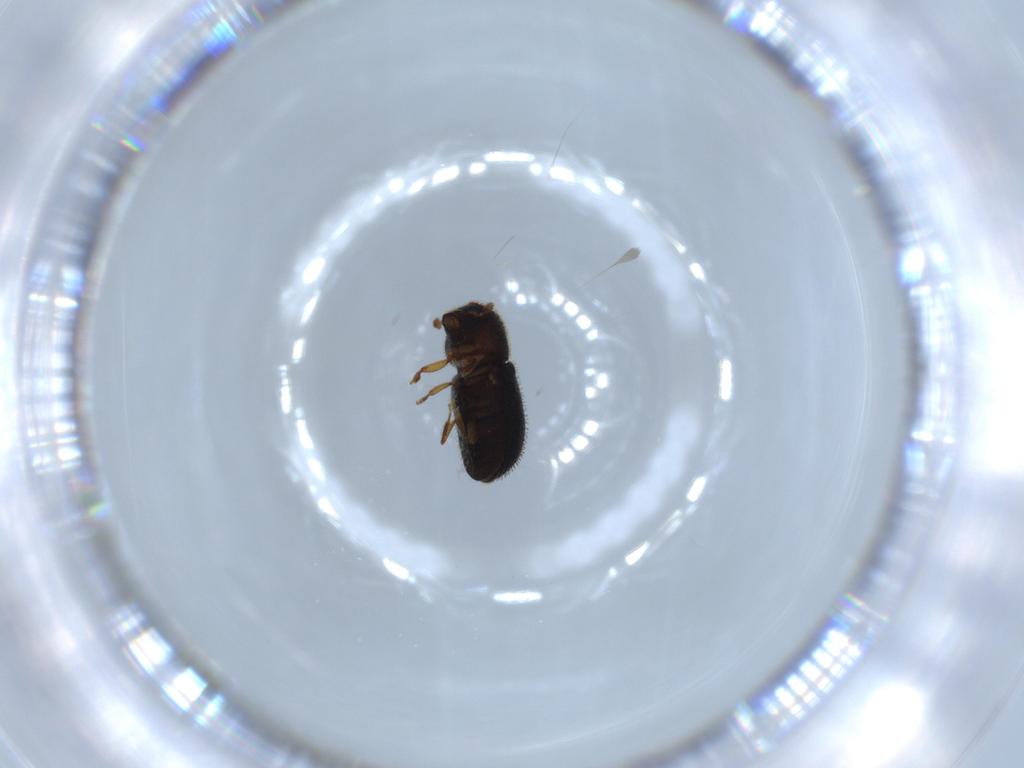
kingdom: Animalia
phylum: Arthropoda
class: Insecta
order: Coleoptera
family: Curculionidae
